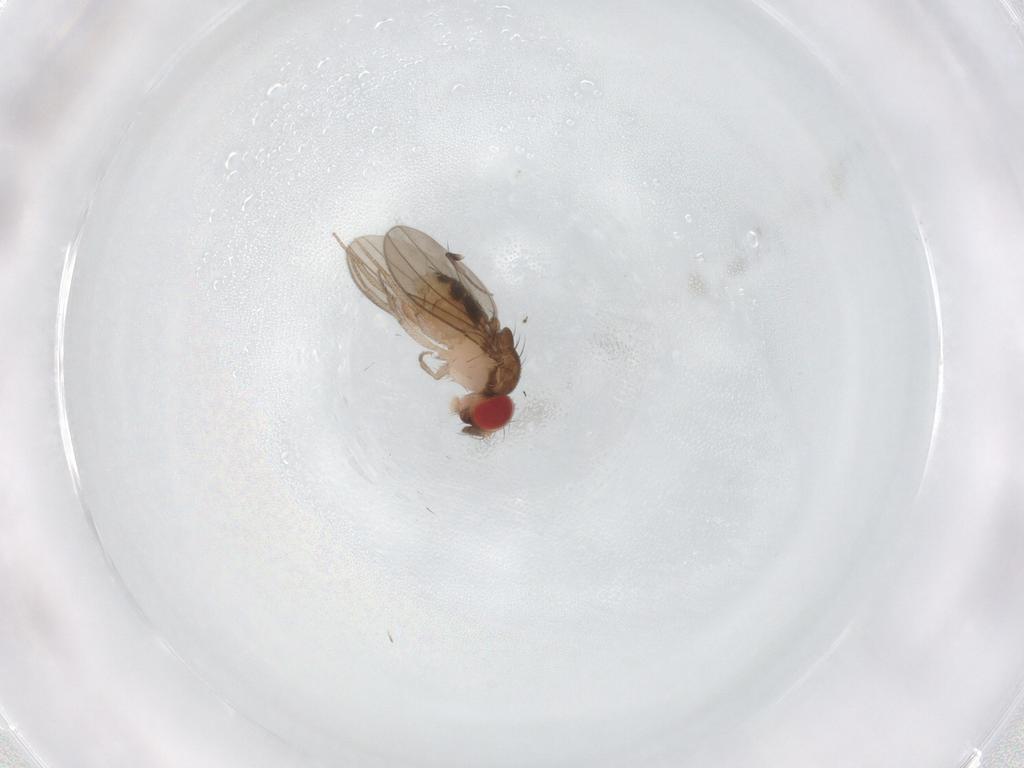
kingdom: Animalia
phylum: Arthropoda
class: Insecta
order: Diptera
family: Drosophilidae
